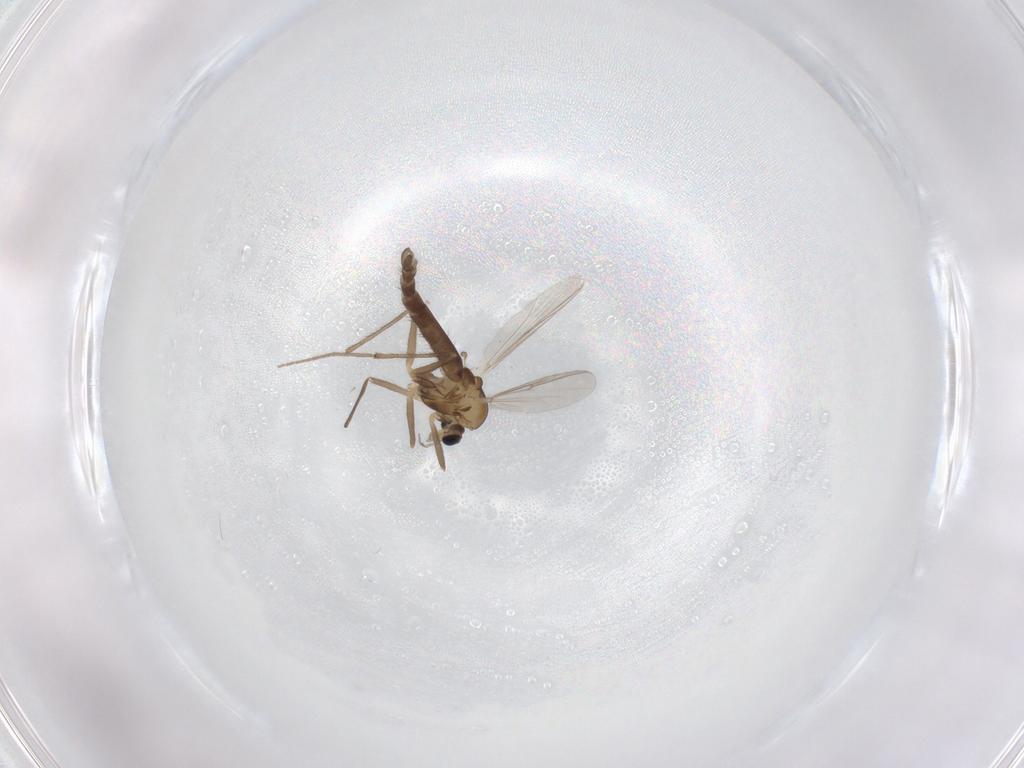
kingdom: Animalia
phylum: Arthropoda
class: Insecta
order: Diptera
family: Chironomidae
